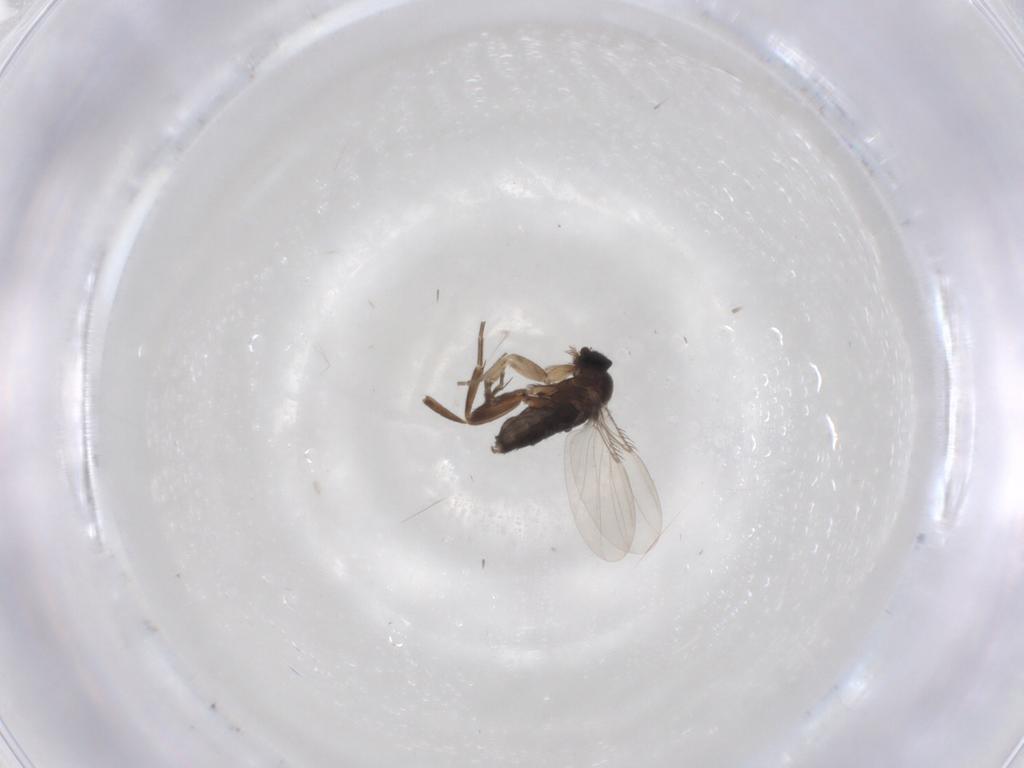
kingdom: Animalia
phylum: Arthropoda
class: Insecta
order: Diptera
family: Phoridae
